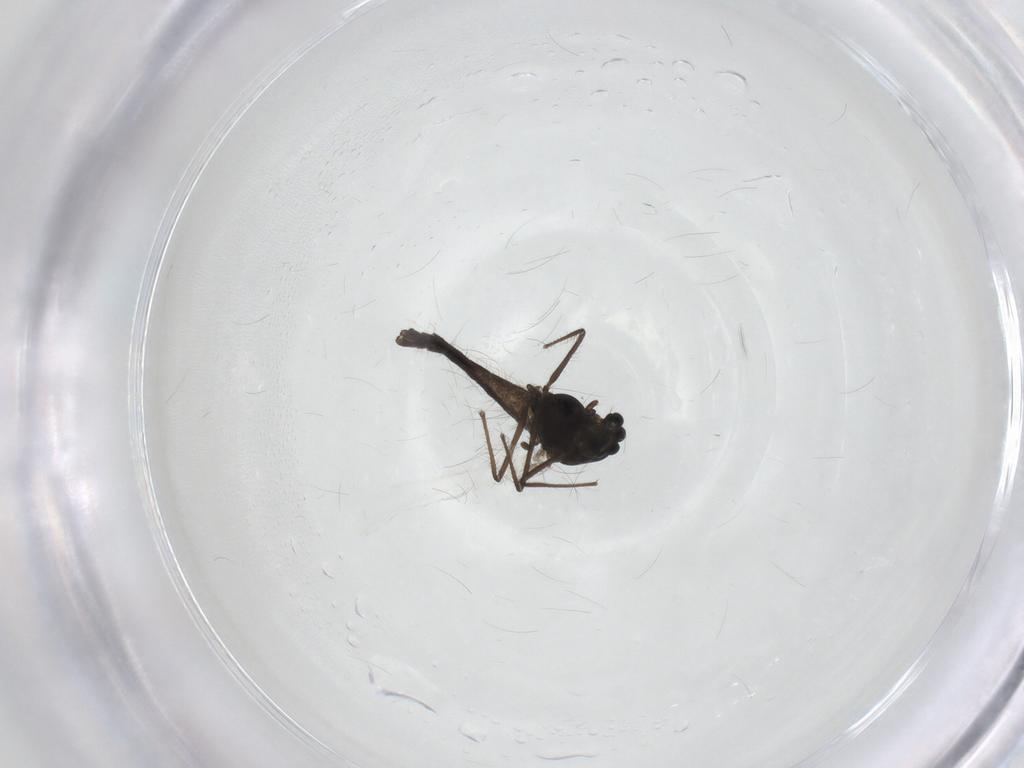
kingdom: Animalia
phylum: Arthropoda
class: Insecta
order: Diptera
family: Chironomidae
